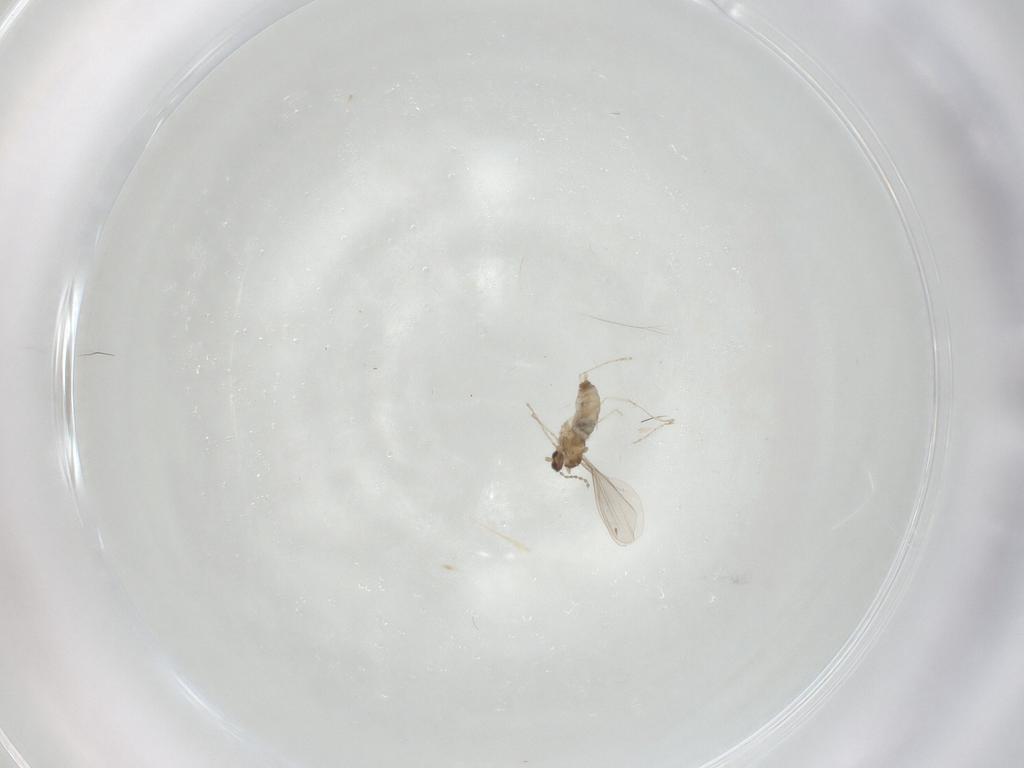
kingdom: Animalia
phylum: Arthropoda
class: Insecta
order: Diptera
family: Cecidomyiidae
